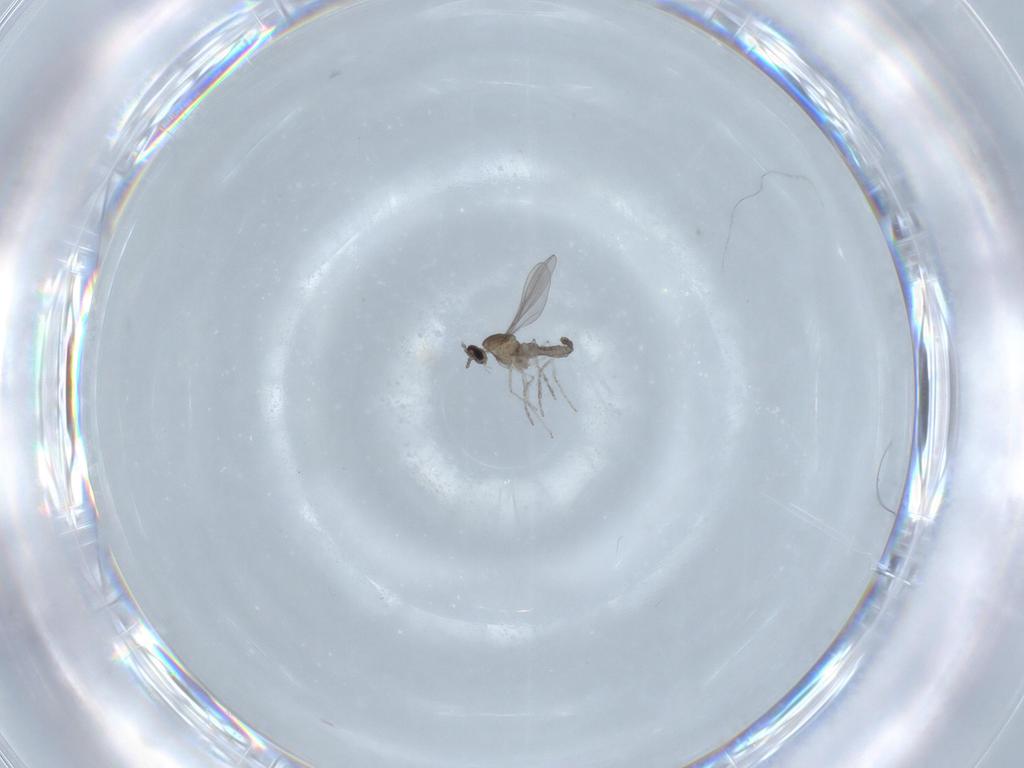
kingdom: Animalia
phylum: Arthropoda
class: Insecta
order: Diptera
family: Cecidomyiidae
